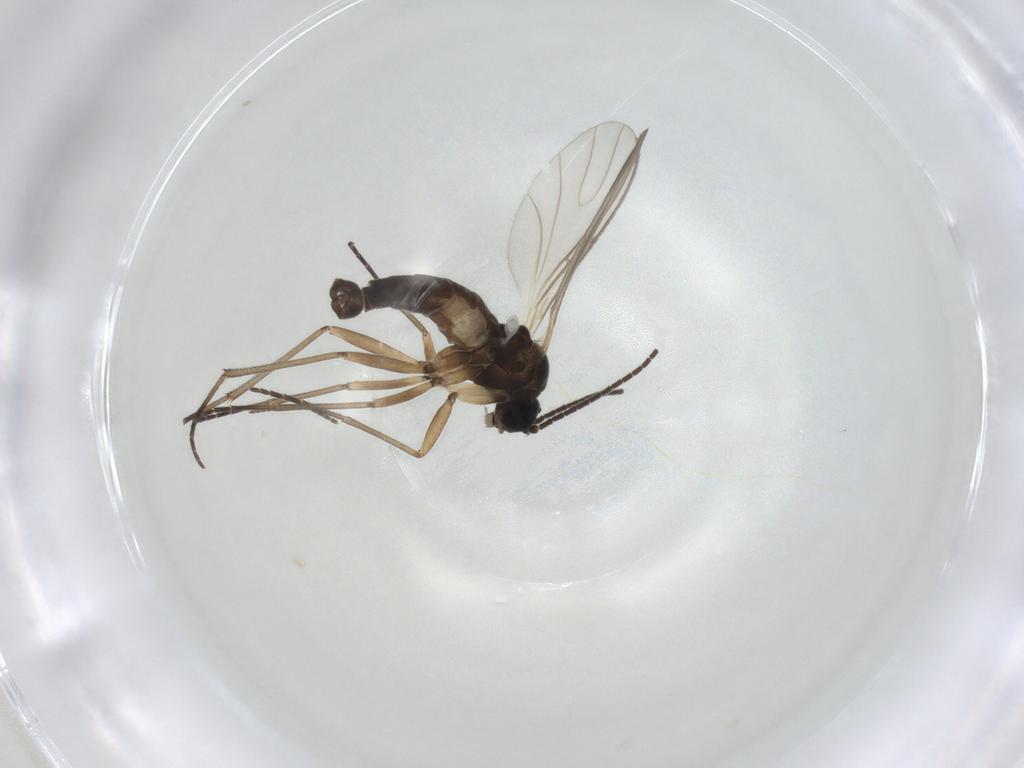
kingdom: Animalia
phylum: Arthropoda
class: Insecta
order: Diptera
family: Sciaridae
